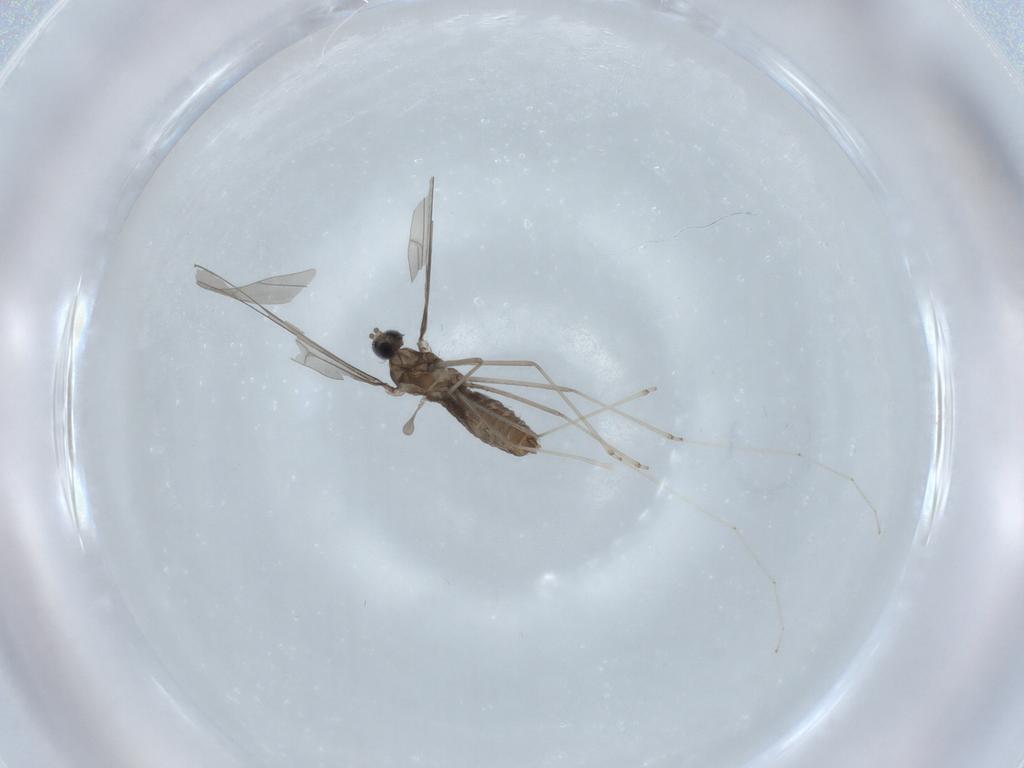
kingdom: Animalia
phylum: Arthropoda
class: Insecta
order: Diptera
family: Cecidomyiidae
